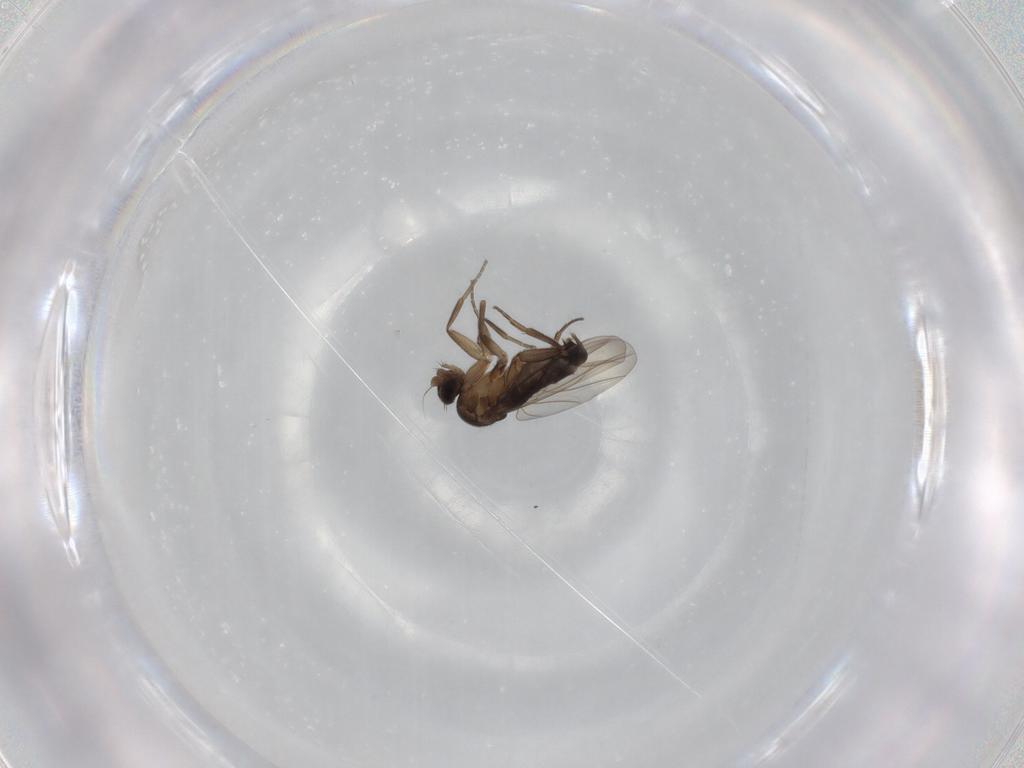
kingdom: Animalia
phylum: Arthropoda
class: Insecta
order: Diptera
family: Phoridae
